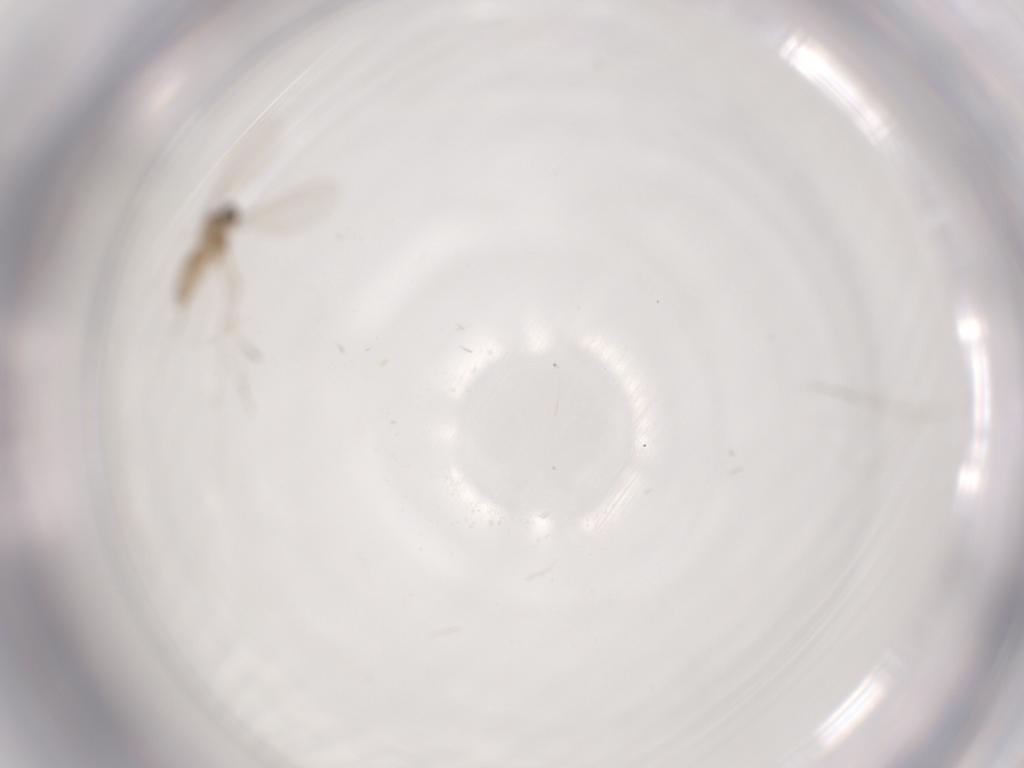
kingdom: Animalia
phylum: Arthropoda
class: Insecta
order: Diptera
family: Cecidomyiidae
